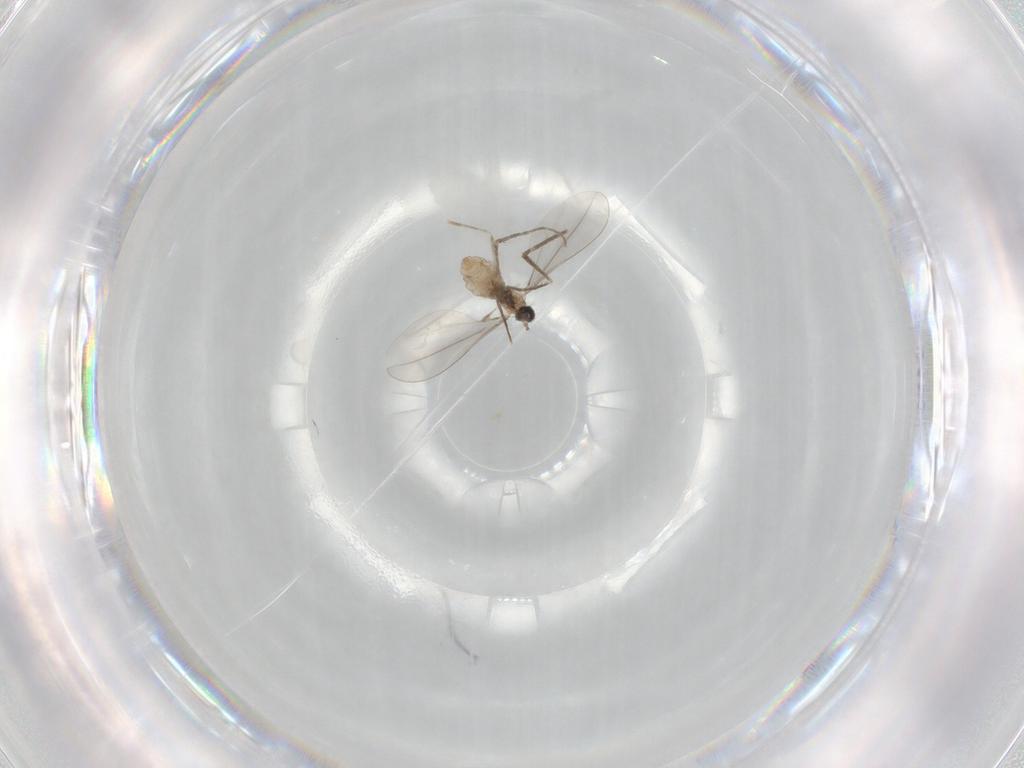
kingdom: Animalia
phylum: Arthropoda
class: Insecta
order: Diptera
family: Cecidomyiidae
